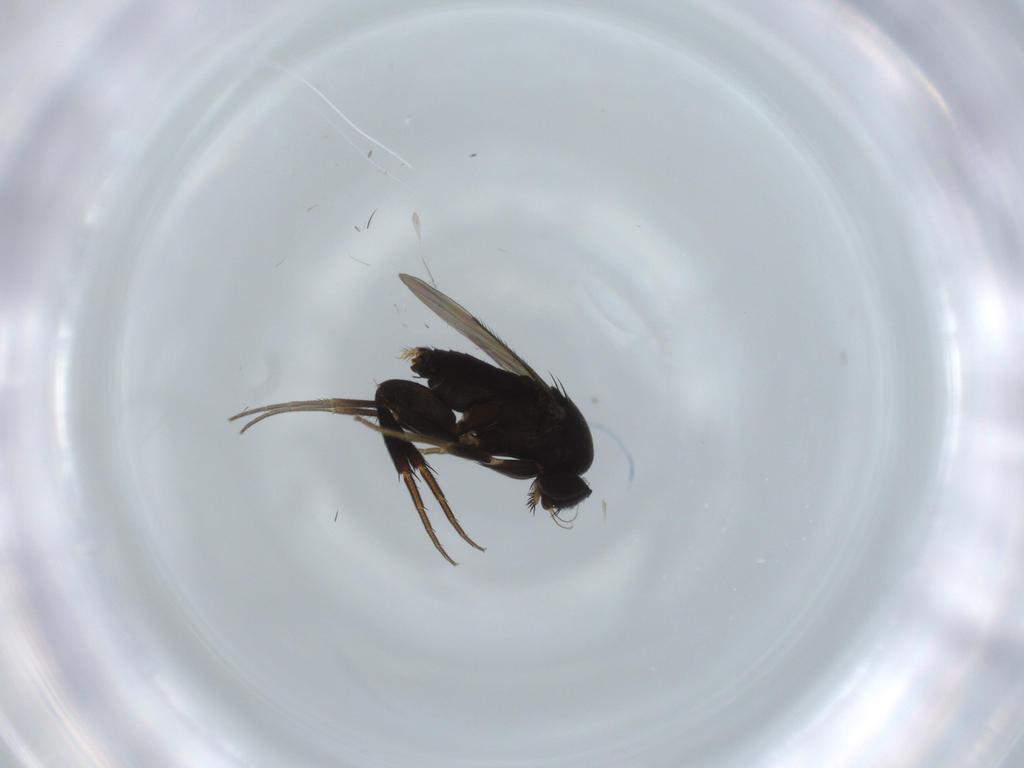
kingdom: Animalia
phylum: Arthropoda
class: Insecta
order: Diptera
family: Phoridae
